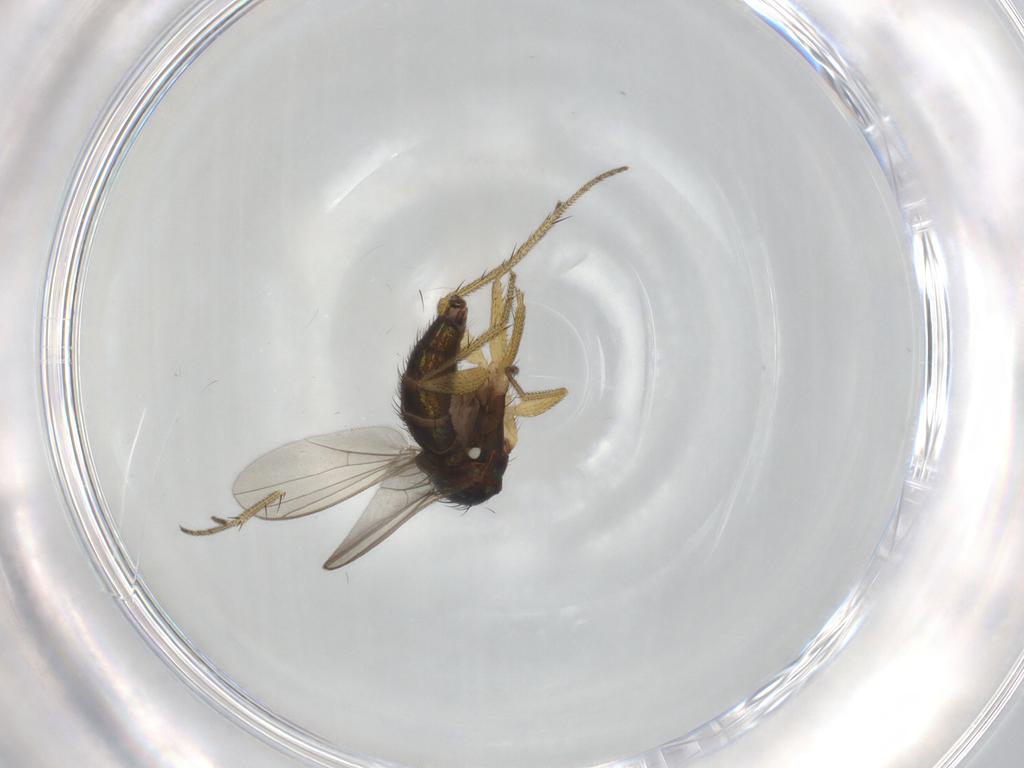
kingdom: Animalia
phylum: Arthropoda
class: Insecta
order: Diptera
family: Dolichopodidae
